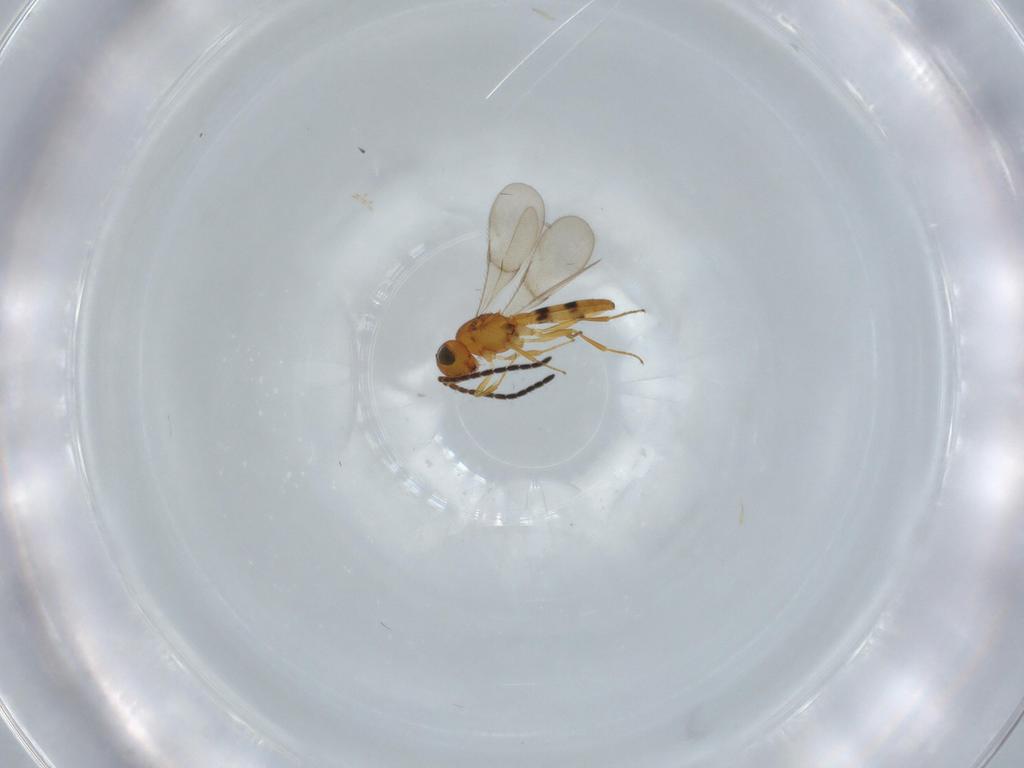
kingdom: Animalia
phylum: Arthropoda
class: Insecta
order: Hymenoptera
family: Scelionidae
